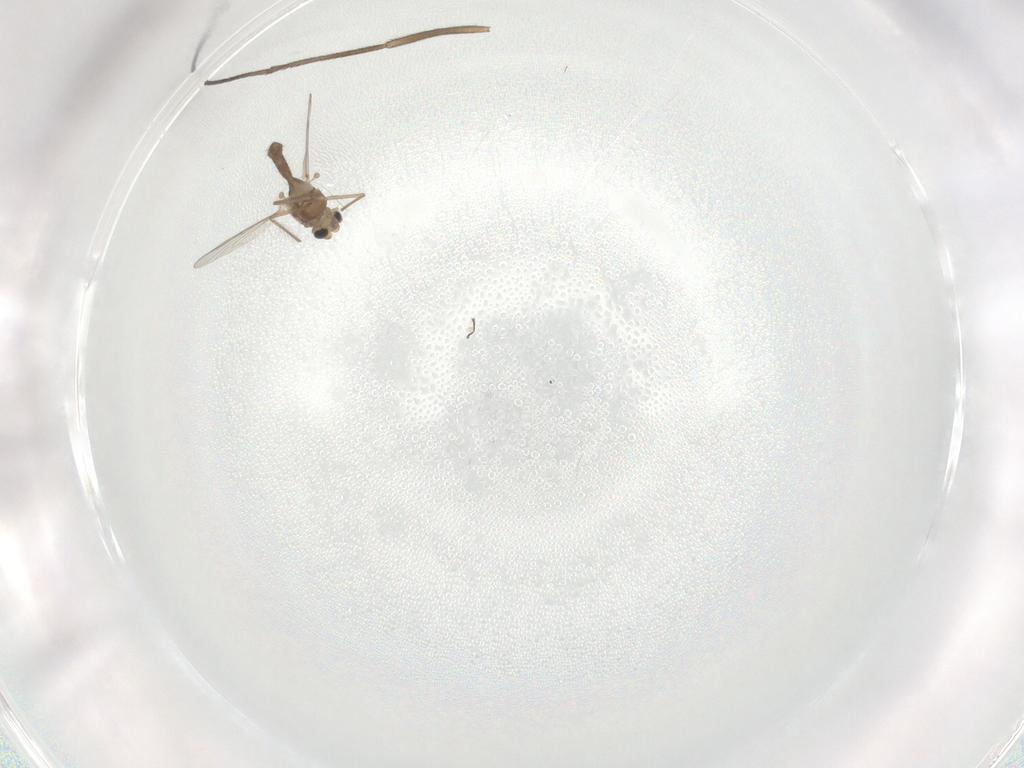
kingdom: Animalia
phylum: Arthropoda
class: Insecta
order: Diptera
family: Chironomidae
